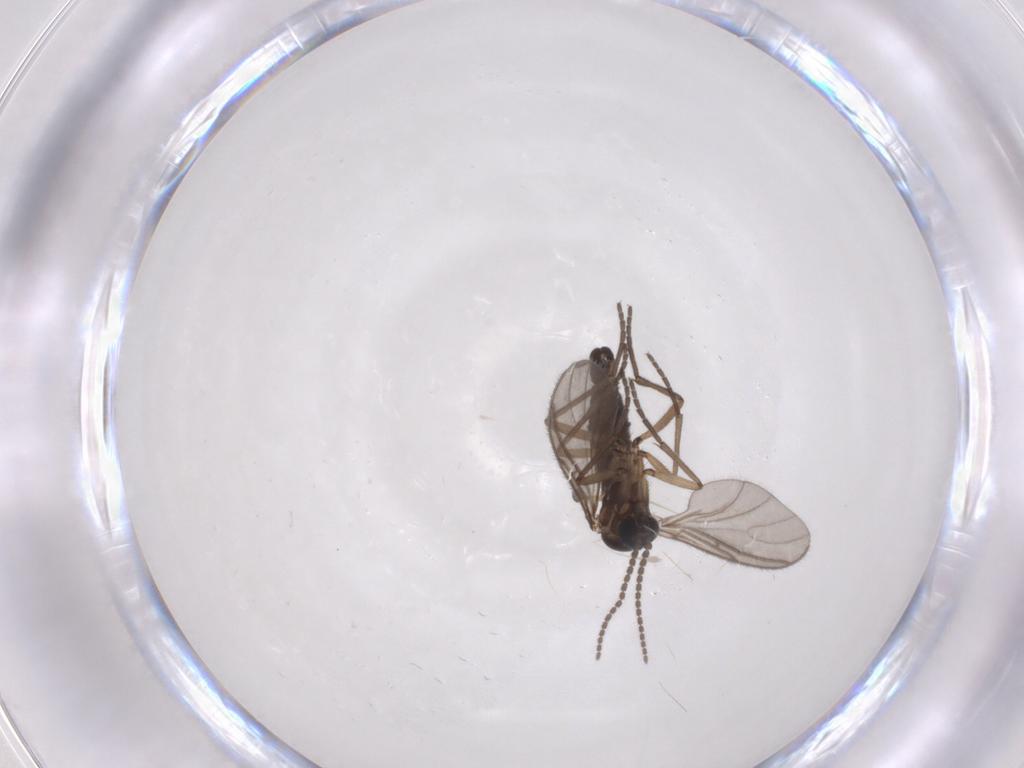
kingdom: Animalia
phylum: Arthropoda
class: Insecta
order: Diptera
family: Sciaridae
